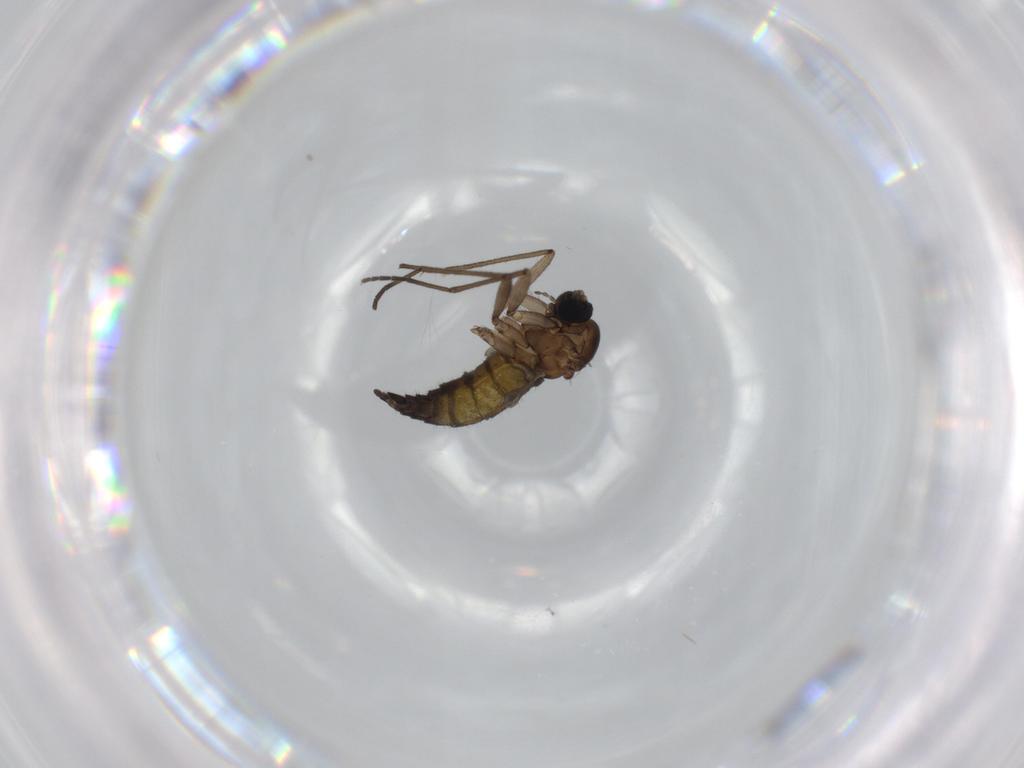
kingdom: Animalia
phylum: Arthropoda
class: Insecta
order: Diptera
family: Sciaridae
